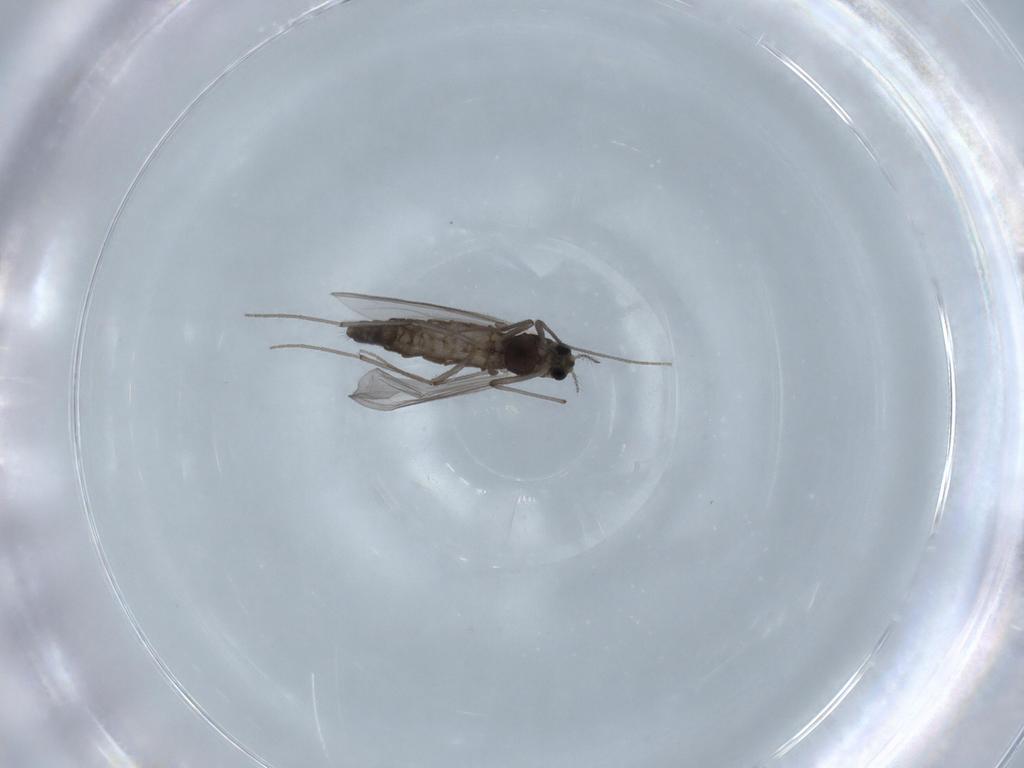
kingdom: Animalia
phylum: Arthropoda
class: Insecta
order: Diptera
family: Chironomidae
